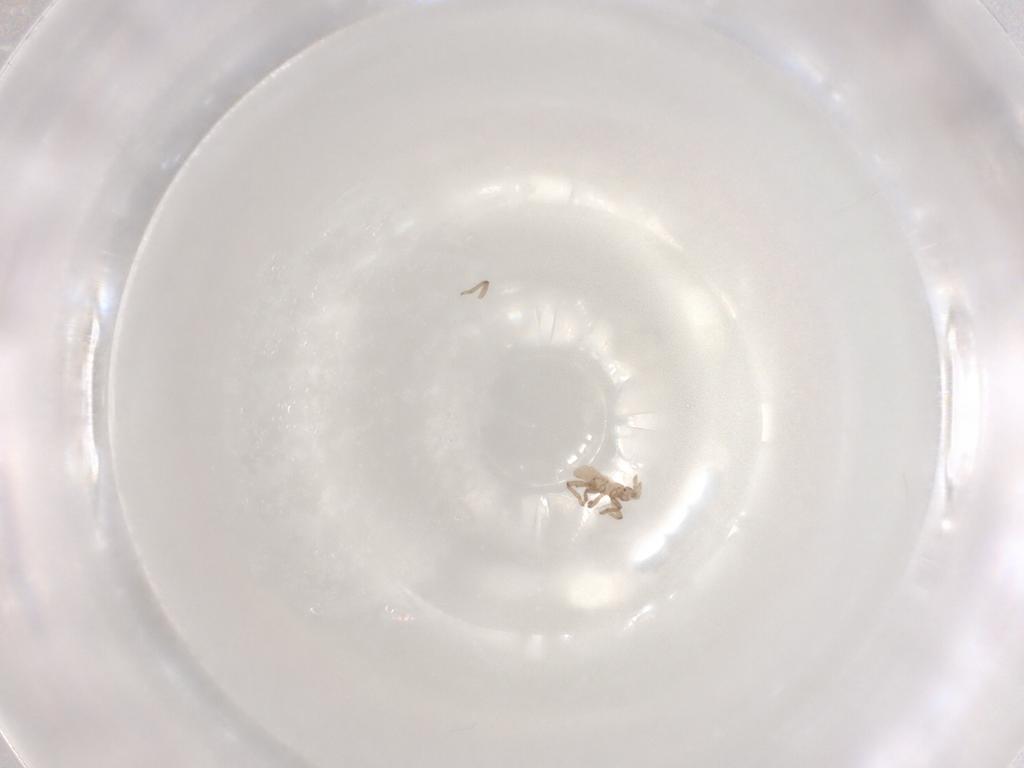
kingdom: Animalia
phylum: Arthropoda
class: Insecta
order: Hemiptera
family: Aphididae
